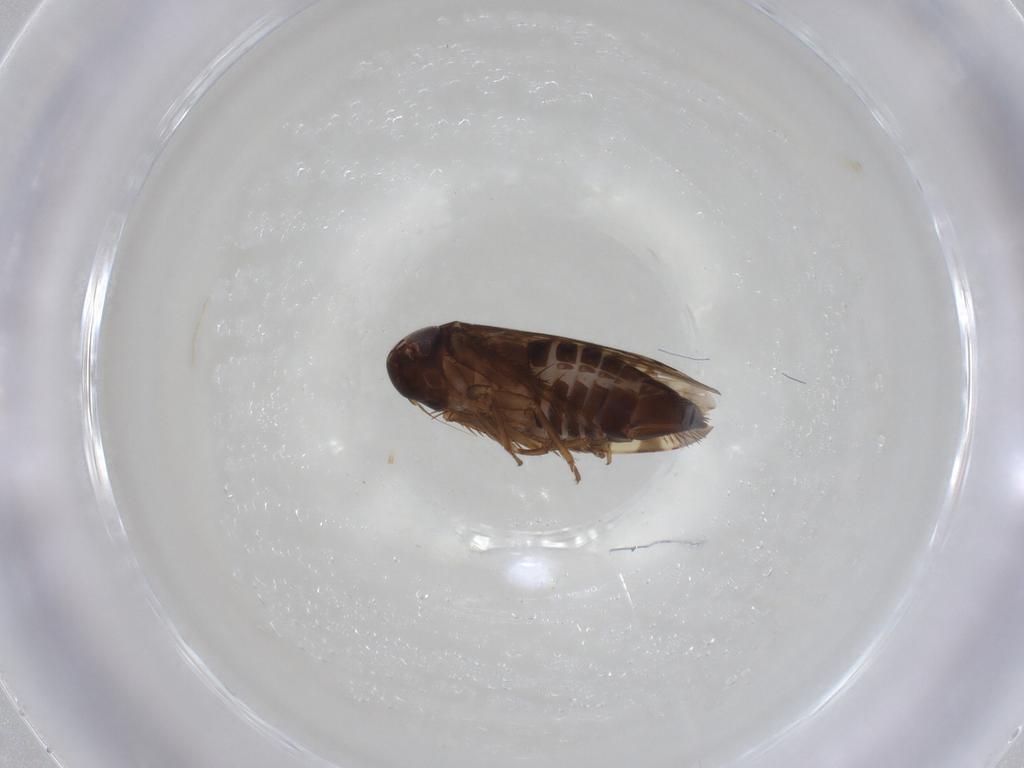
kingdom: Animalia
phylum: Arthropoda
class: Insecta
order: Hemiptera
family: Cicadellidae
